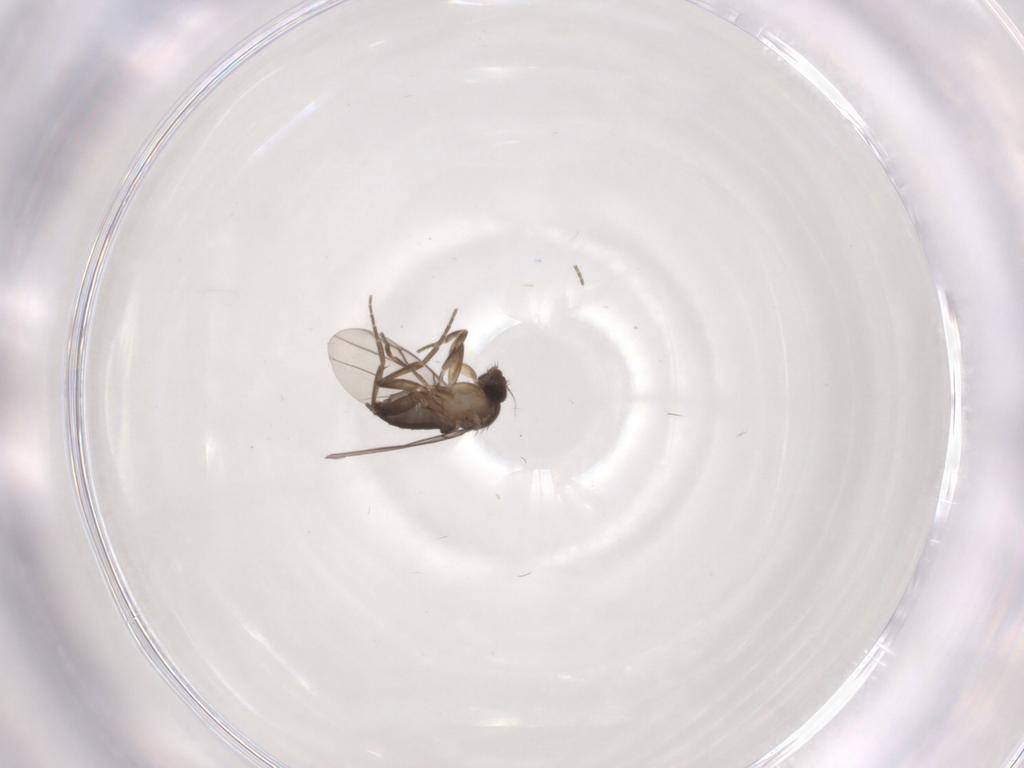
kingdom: Animalia
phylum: Arthropoda
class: Insecta
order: Diptera
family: Phoridae
